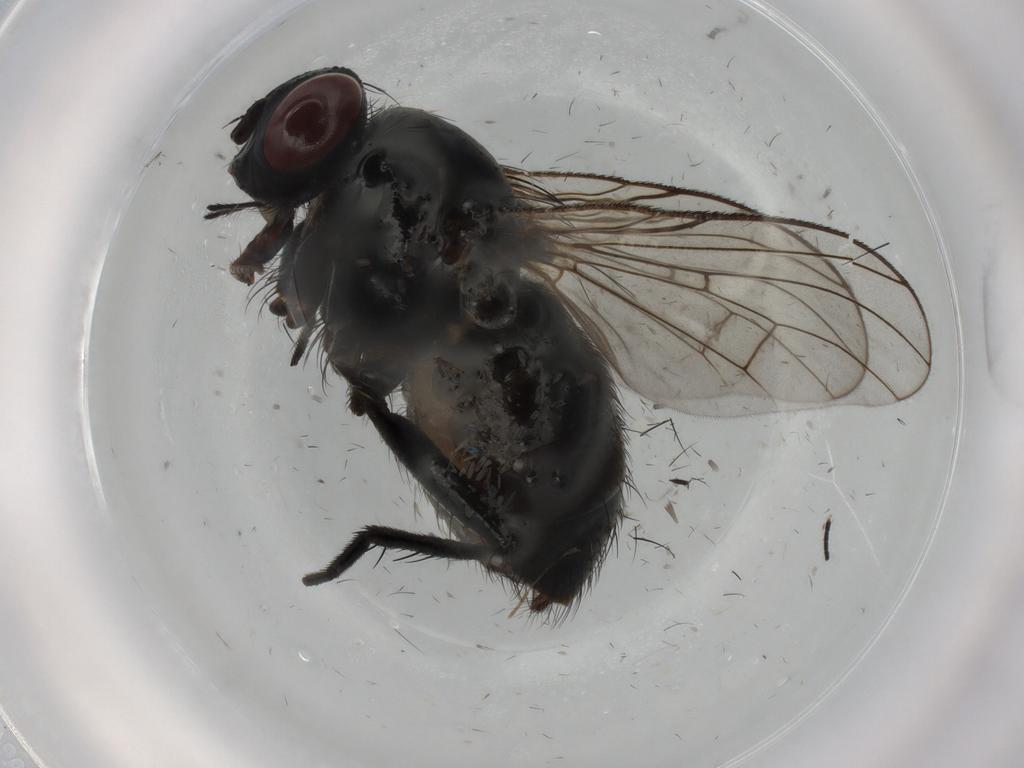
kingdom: Animalia
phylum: Arthropoda
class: Insecta
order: Diptera
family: Muscidae
